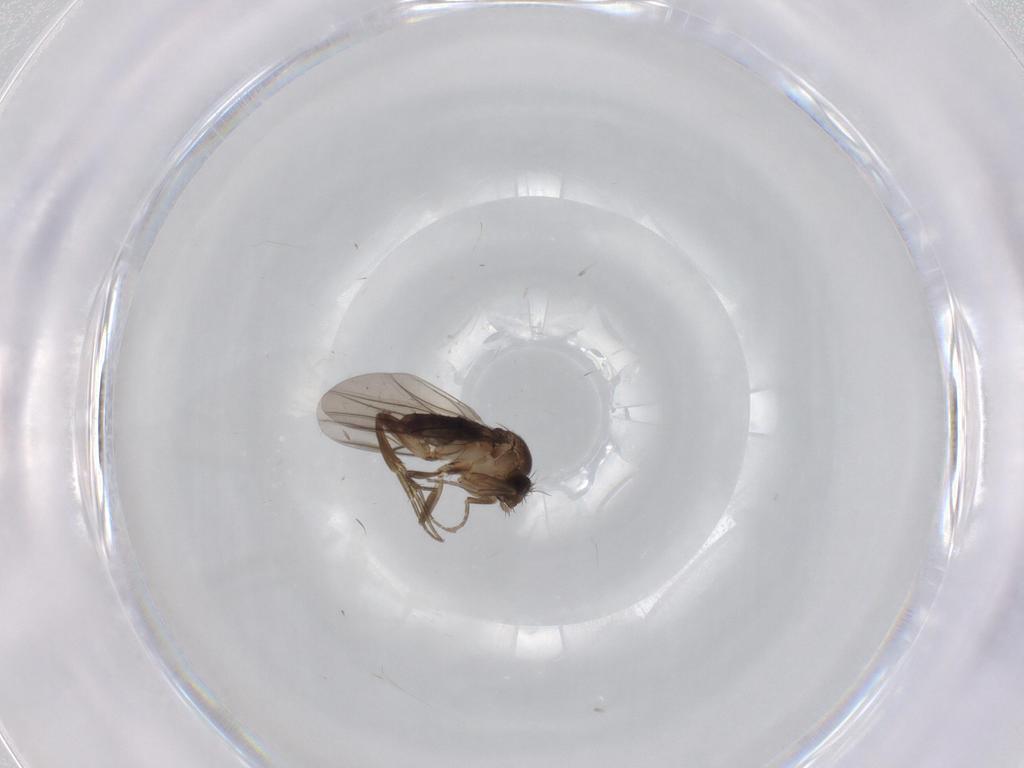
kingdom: Animalia
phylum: Arthropoda
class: Insecta
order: Diptera
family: Phoridae
